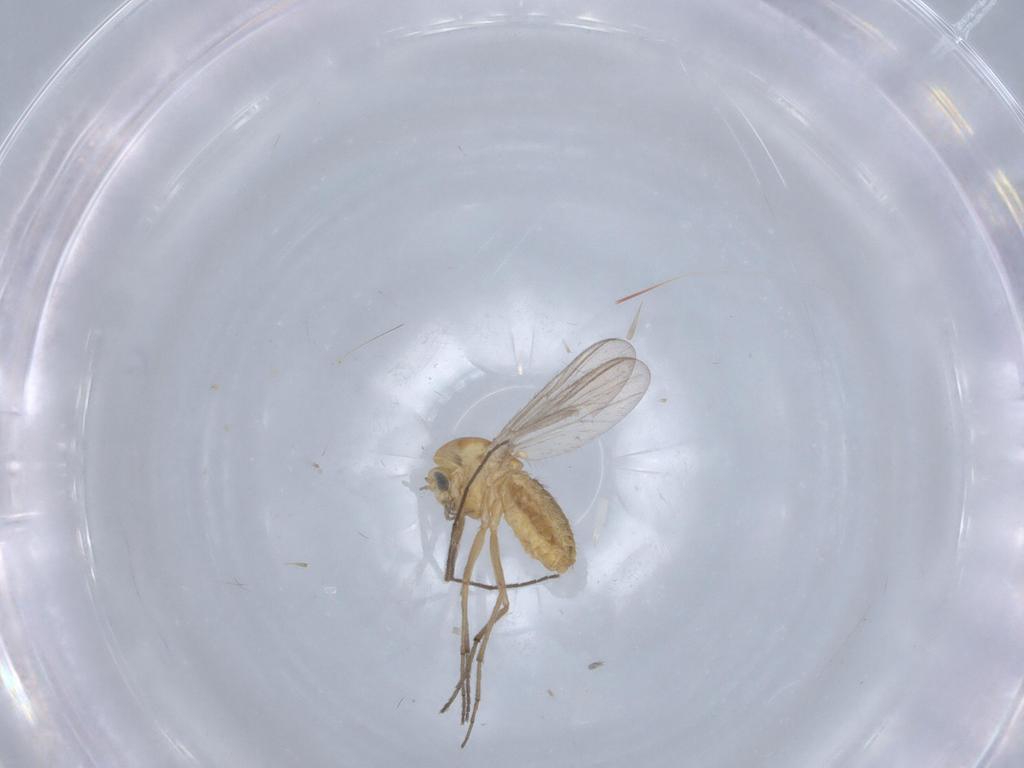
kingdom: Animalia
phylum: Arthropoda
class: Insecta
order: Diptera
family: Chironomidae
